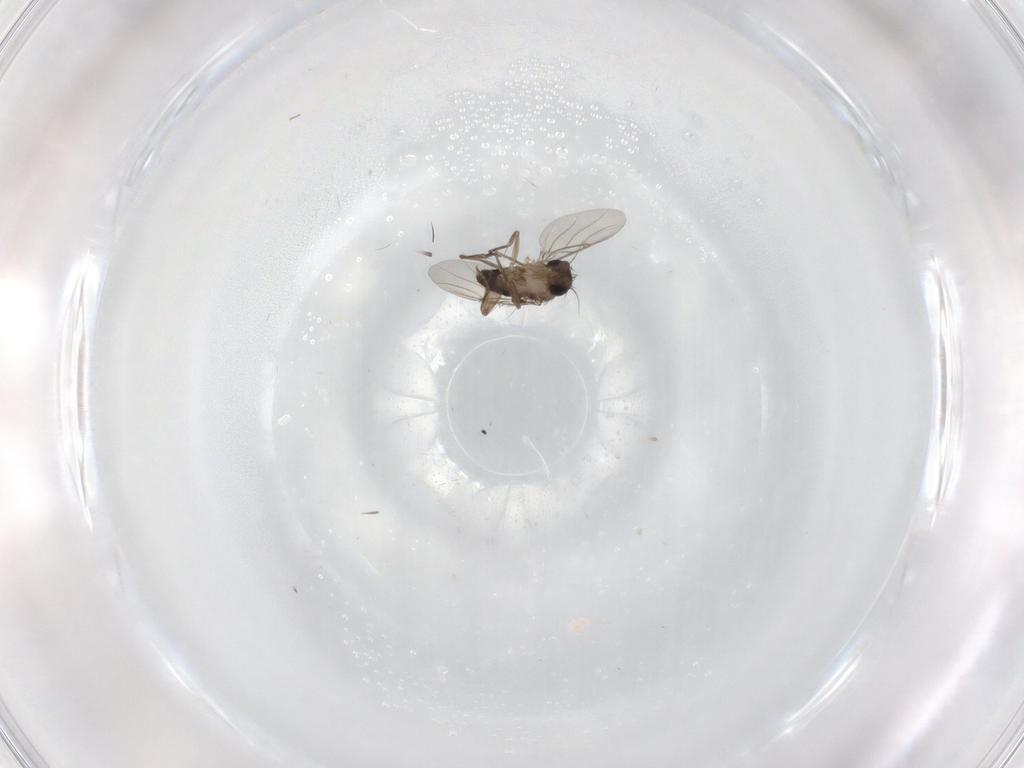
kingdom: Animalia
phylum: Arthropoda
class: Insecta
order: Diptera
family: Phoridae
